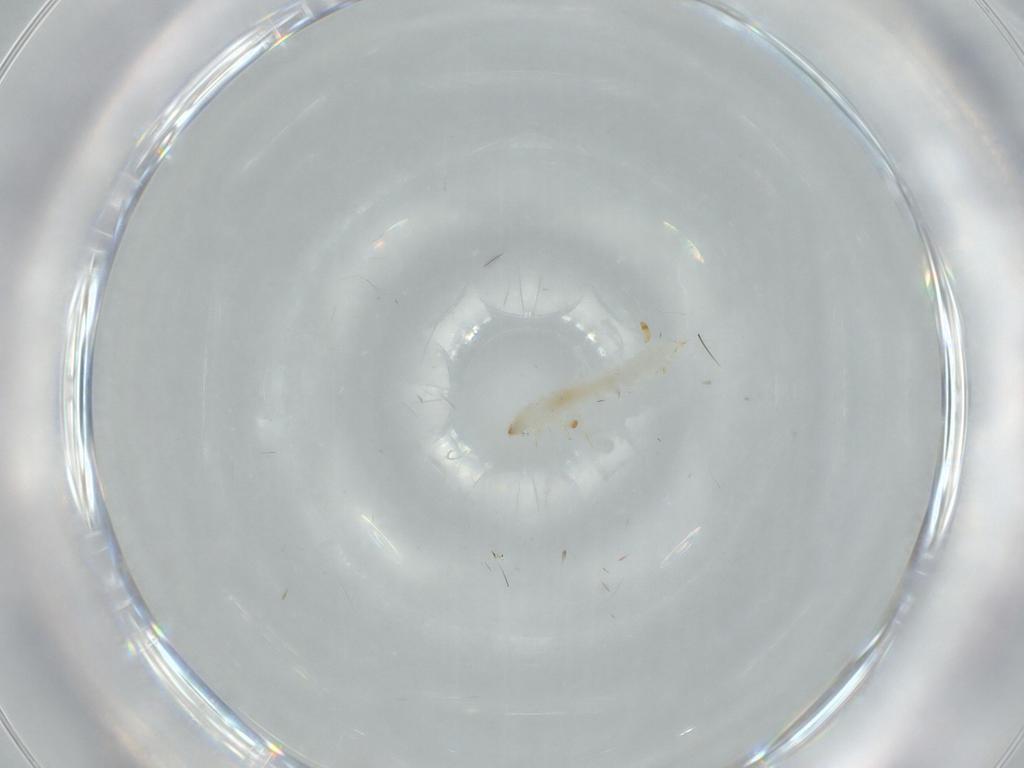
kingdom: Animalia
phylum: Arthropoda
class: Insecta
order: Coleoptera
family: Micromalthidae
